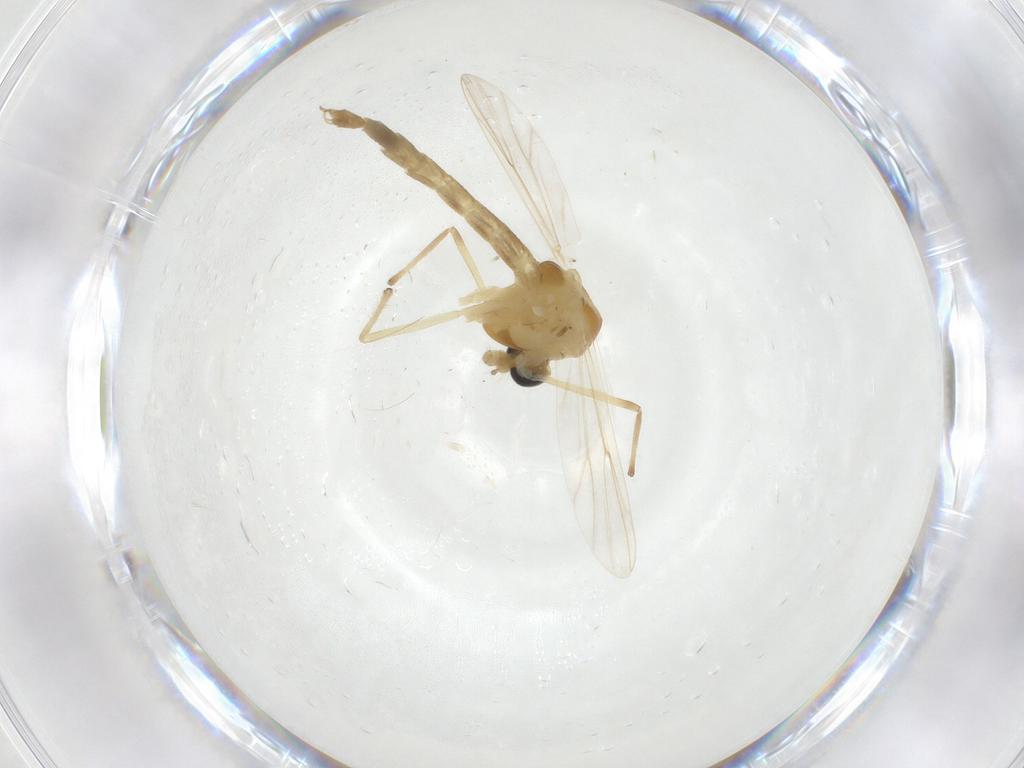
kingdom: Animalia
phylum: Arthropoda
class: Insecta
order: Diptera
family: Chironomidae
